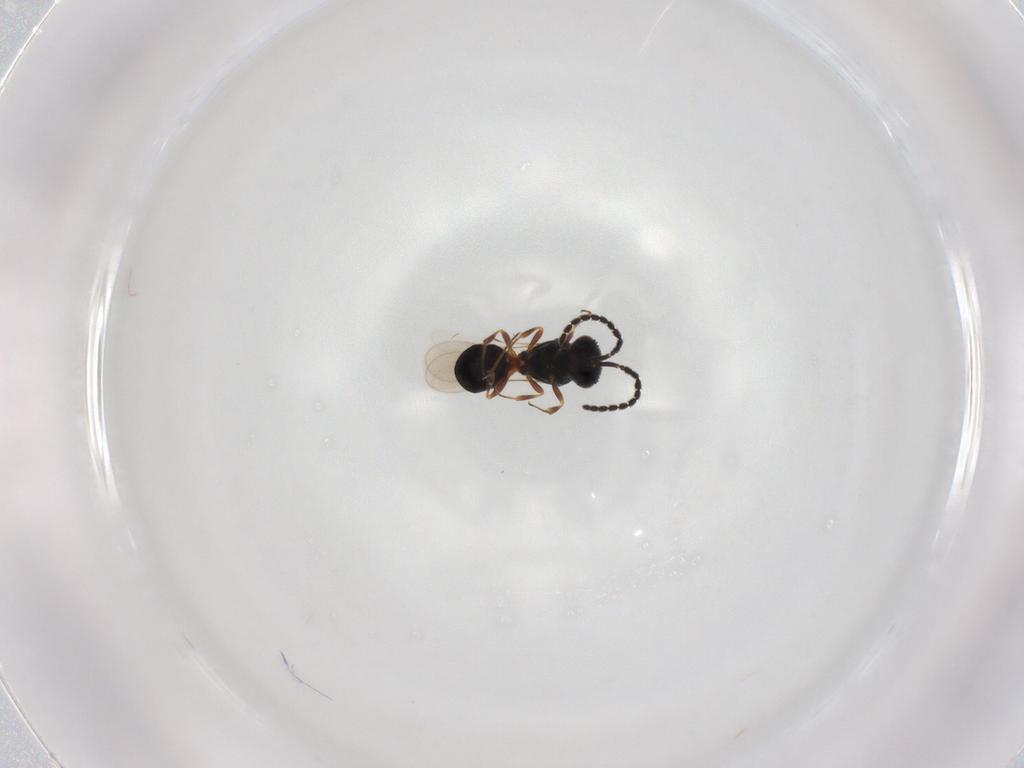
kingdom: Animalia
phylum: Arthropoda
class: Insecta
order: Hymenoptera
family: Scelionidae
